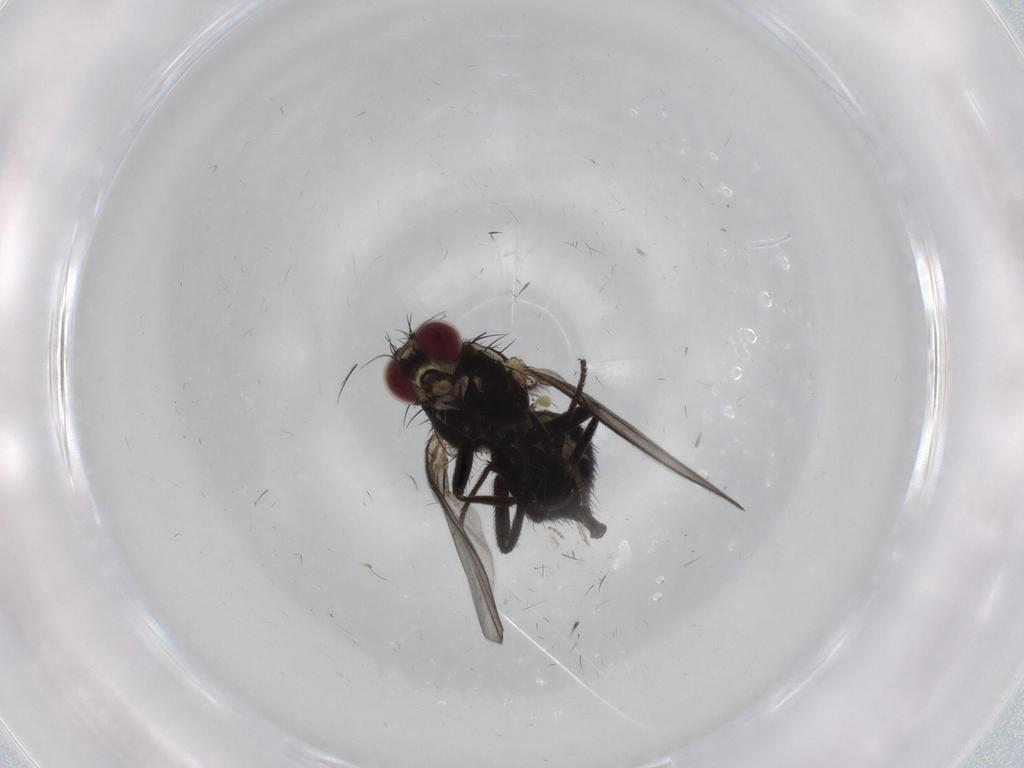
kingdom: Animalia
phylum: Arthropoda
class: Insecta
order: Diptera
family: Agromyzidae
